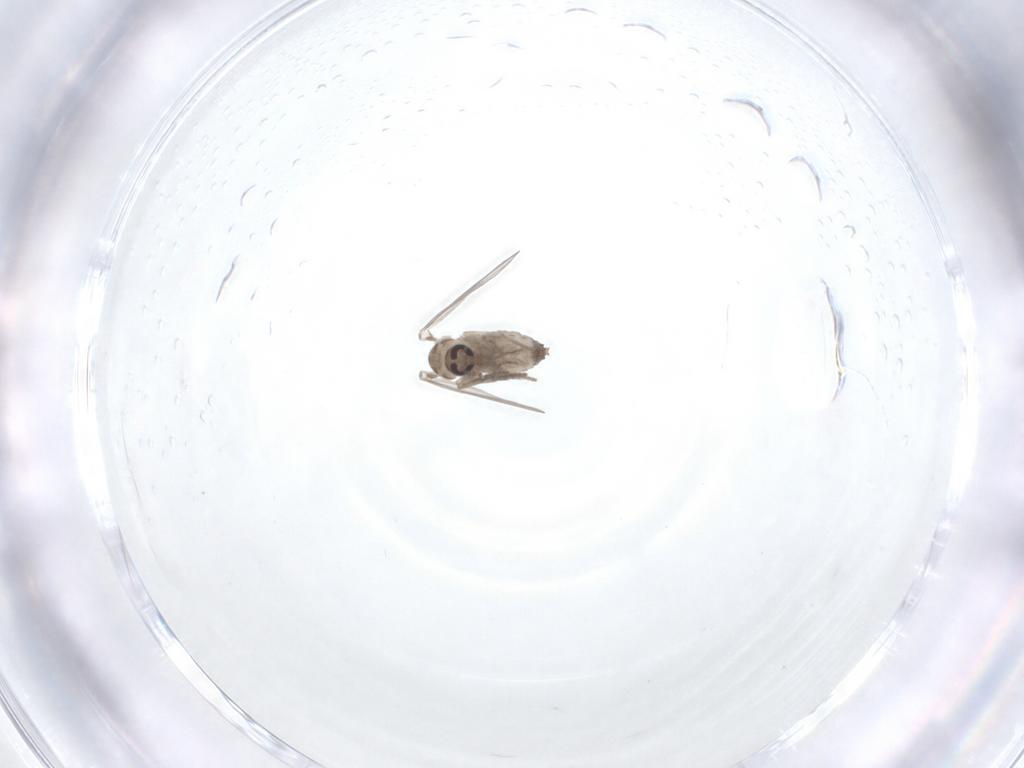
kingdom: Animalia
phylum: Arthropoda
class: Insecta
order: Diptera
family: Psychodidae
